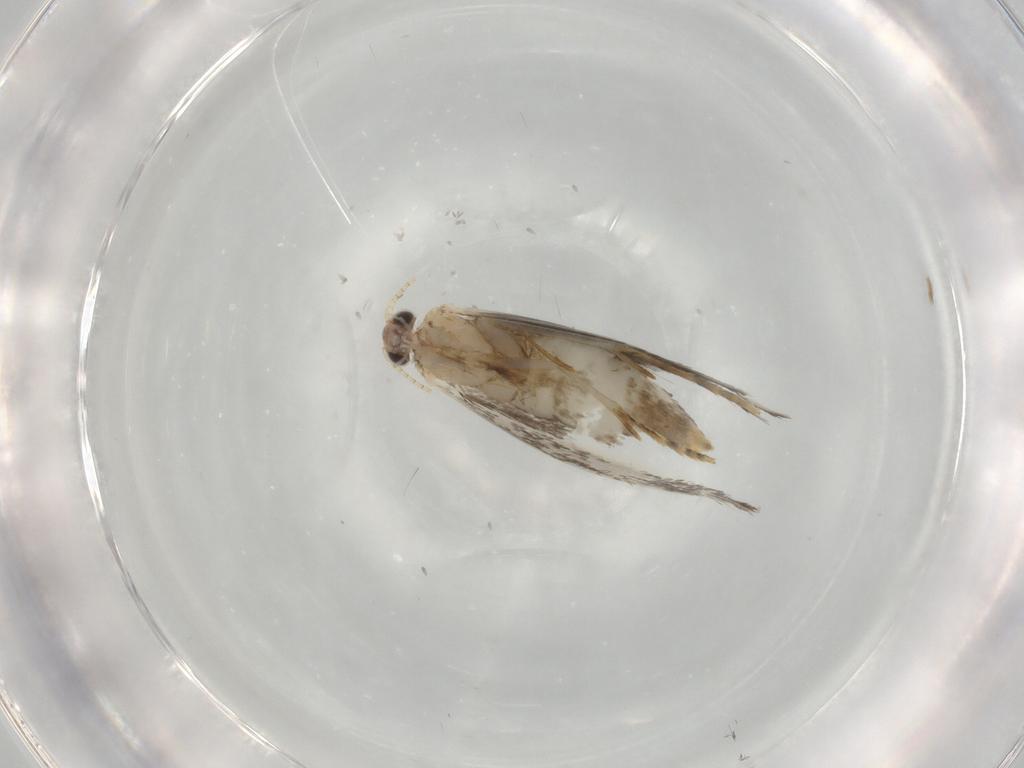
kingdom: Animalia
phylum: Arthropoda
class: Insecta
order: Lepidoptera
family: Tineidae
